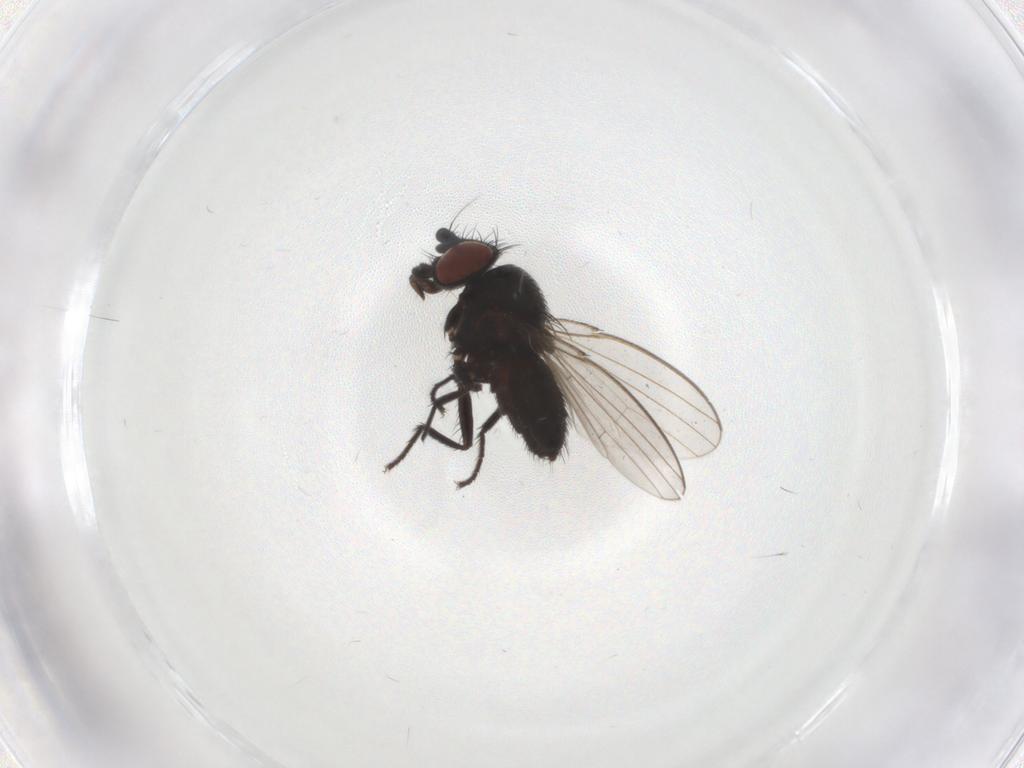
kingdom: Animalia
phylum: Arthropoda
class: Insecta
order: Diptera
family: Milichiidae
